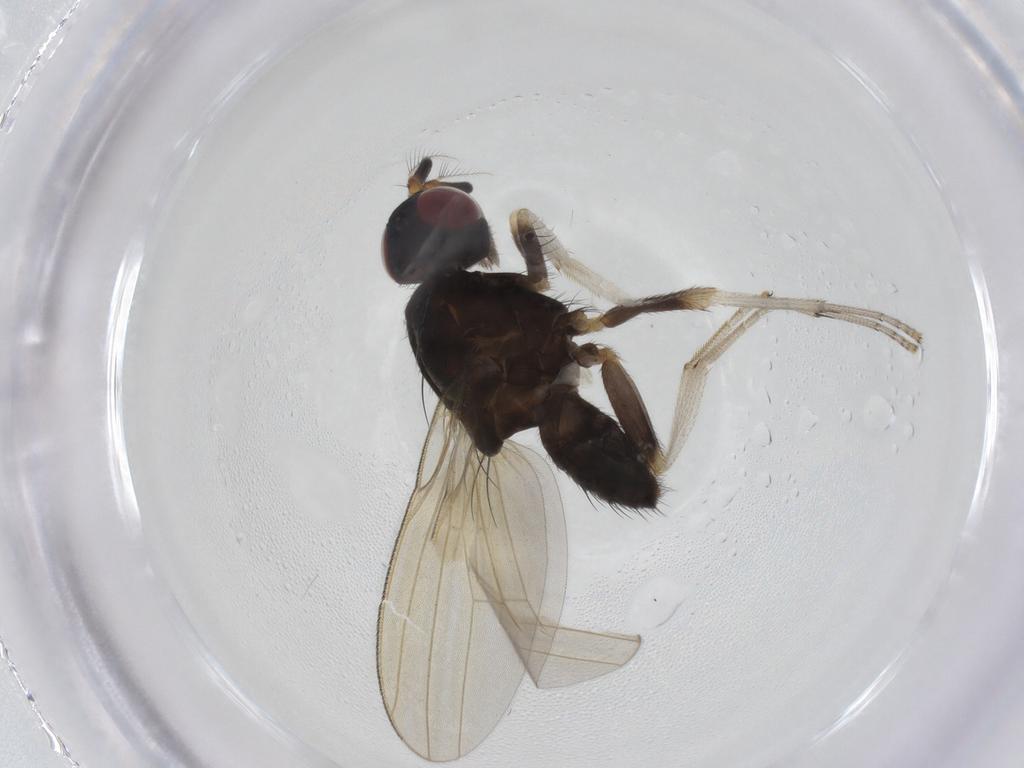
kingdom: Animalia
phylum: Arthropoda
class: Insecta
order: Diptera
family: Sciaridae
